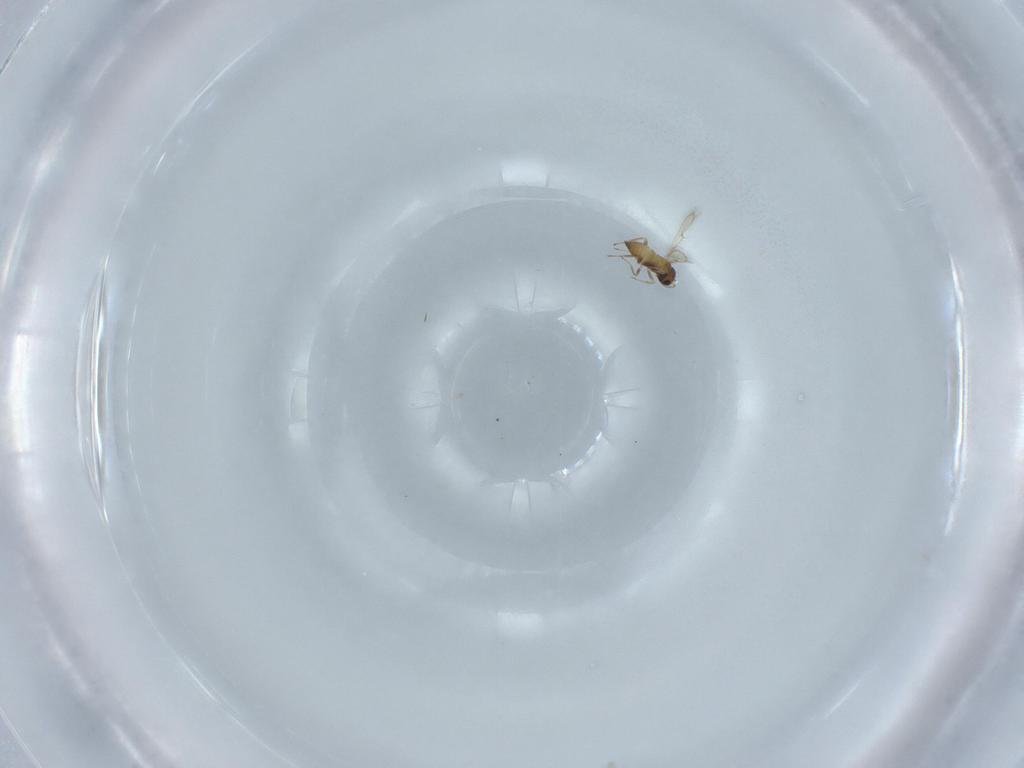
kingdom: Animalia
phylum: Arthropoda
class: Insecta
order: Hymenoptera
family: Trichogrammatidae
